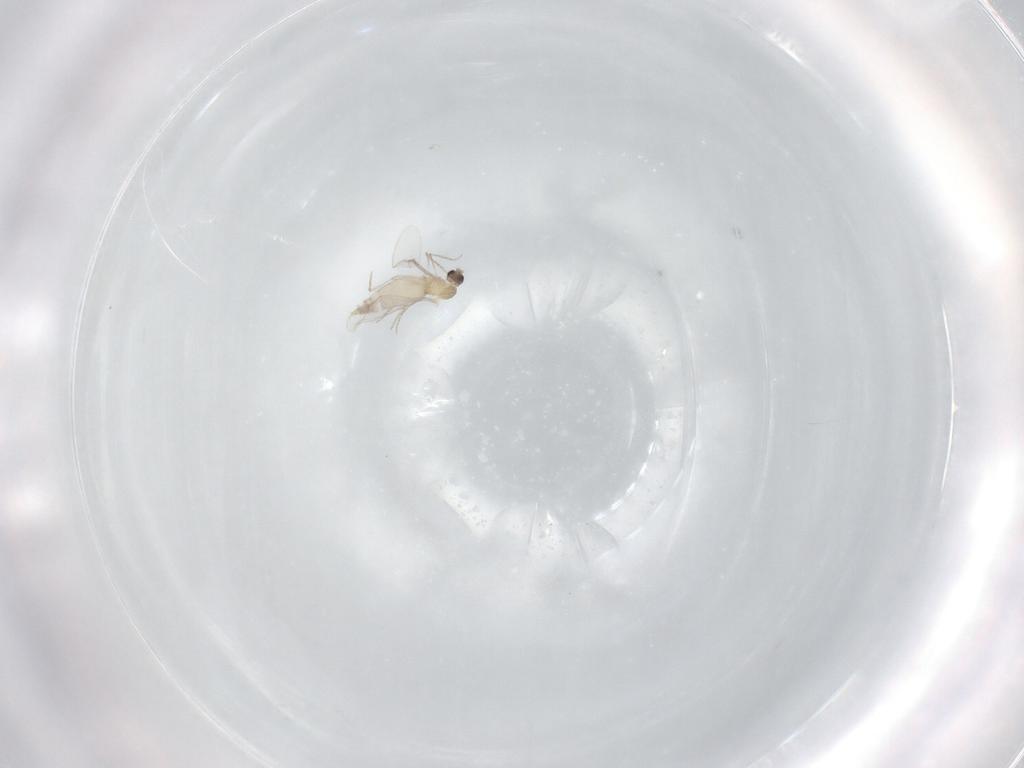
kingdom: Animalia
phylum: Arthropoda
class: Insecta
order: Diptera
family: Cecidomyiidae
